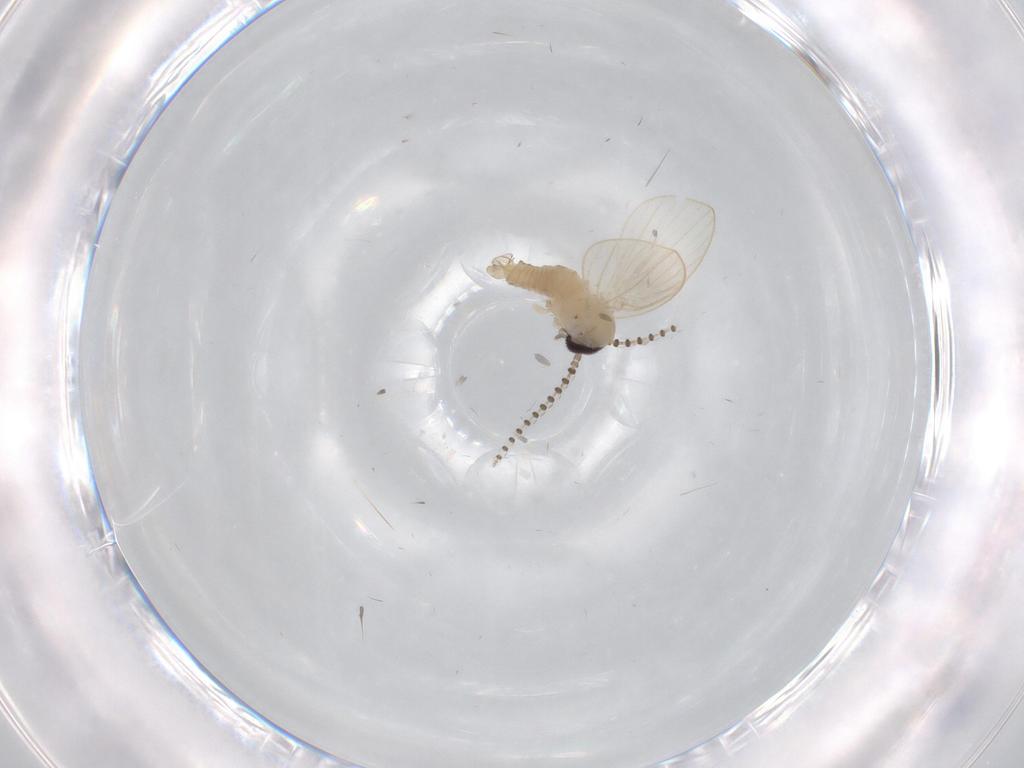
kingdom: Animalia
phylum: Arthropoda
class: Insecta
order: Diptera
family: Psychodidae
